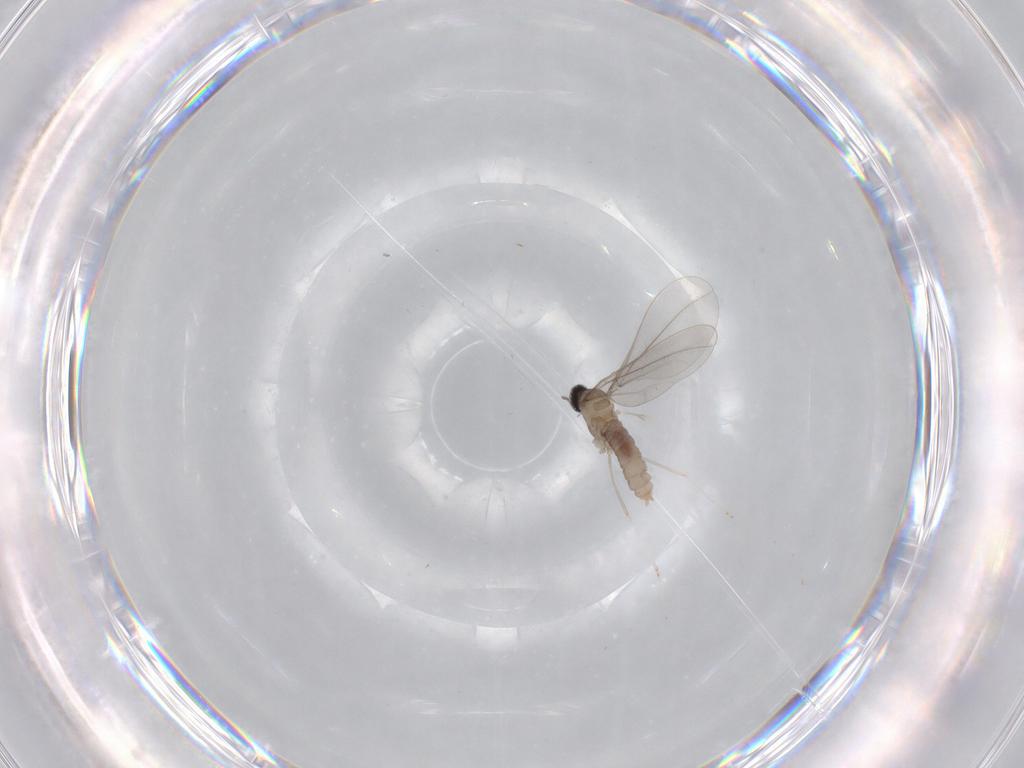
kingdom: Animalia
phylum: Arthropoda
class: Insecta
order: Diptera
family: Cecidomyiidae
